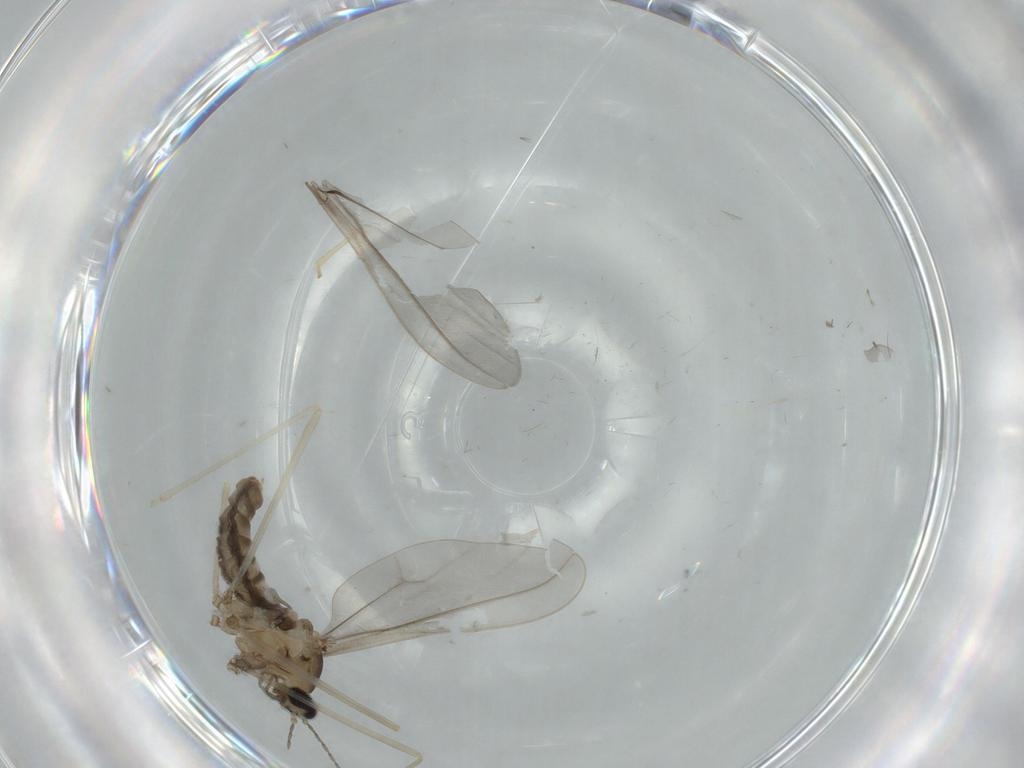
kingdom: Animalia
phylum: Arthropoda
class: Insecta
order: Diptera
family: Cecidomyiidae
